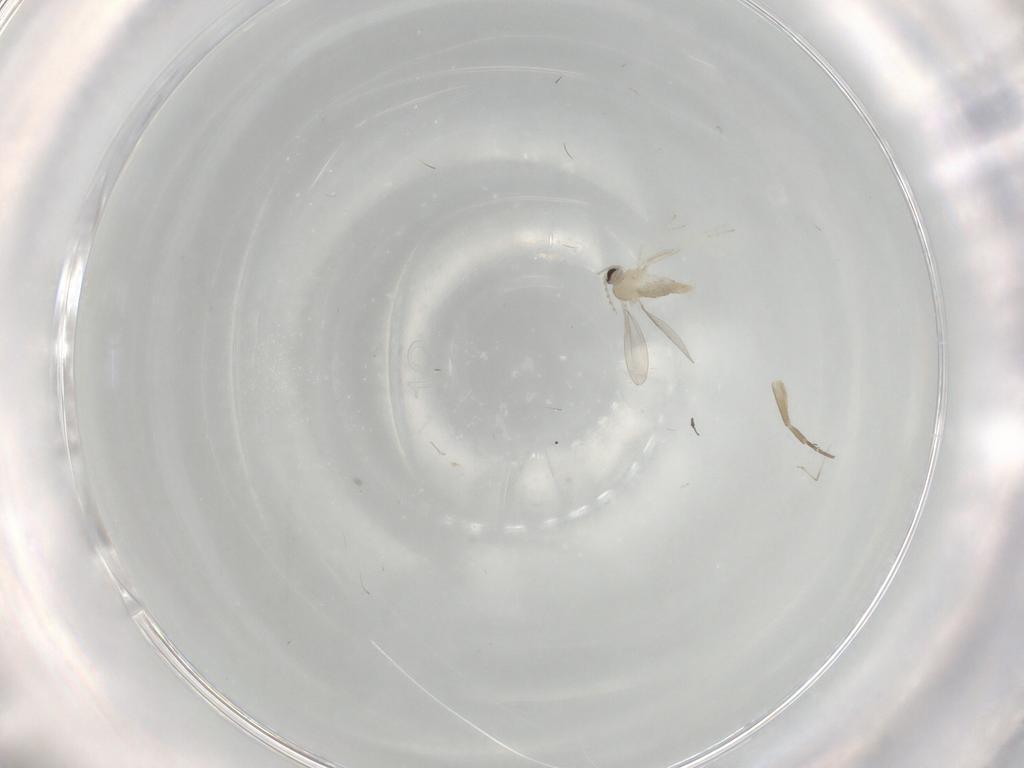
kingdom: Animalia
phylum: Arthropoda
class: Insecta
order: Diptera
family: Cecidomyiidae
